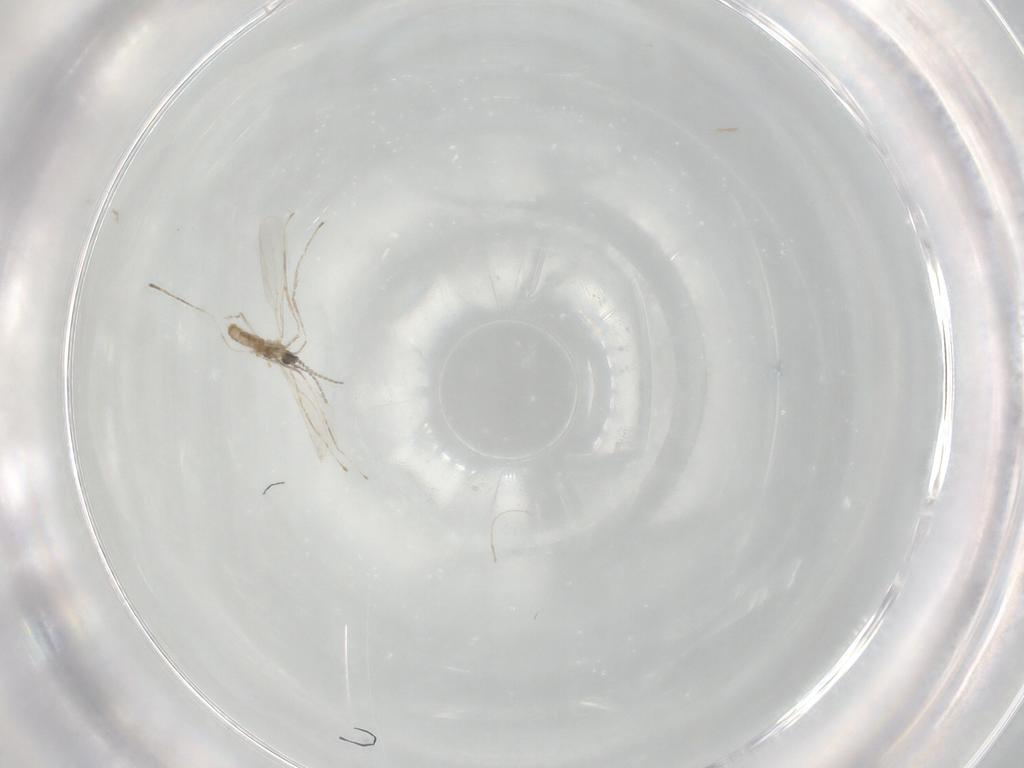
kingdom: Animalia
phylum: Arthropoda
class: Insecta
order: Diptera
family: Cecidomyiidae
